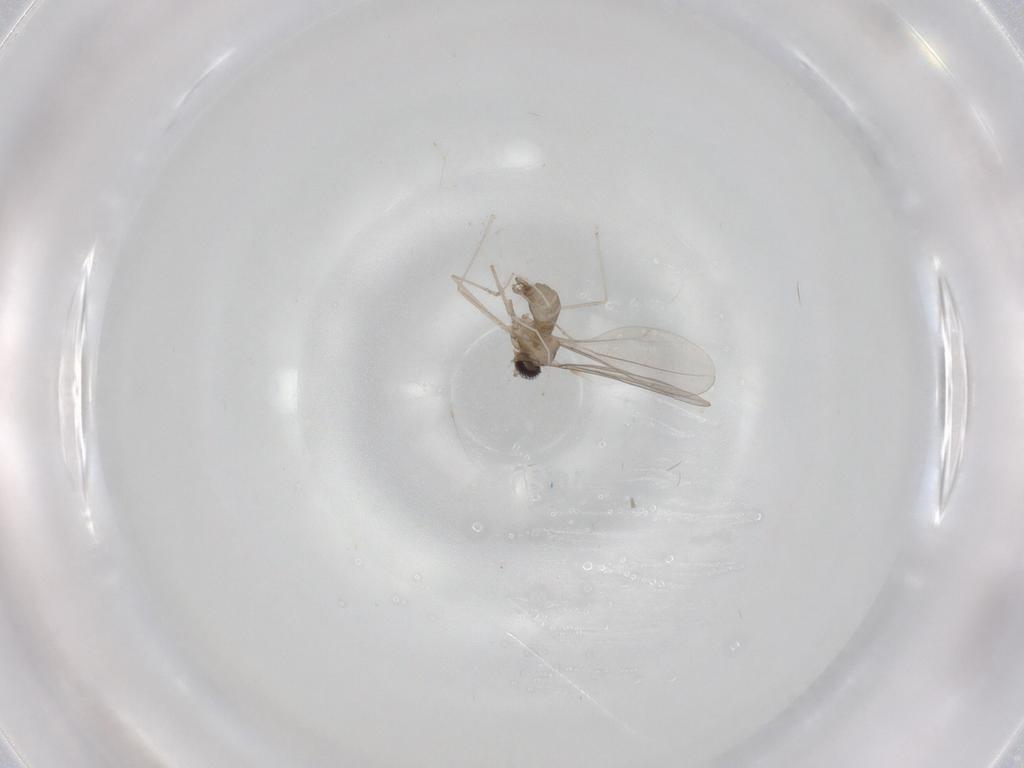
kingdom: Animalia
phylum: Arthropoda
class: Insecta
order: Diptera
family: Cecidomyiidae
